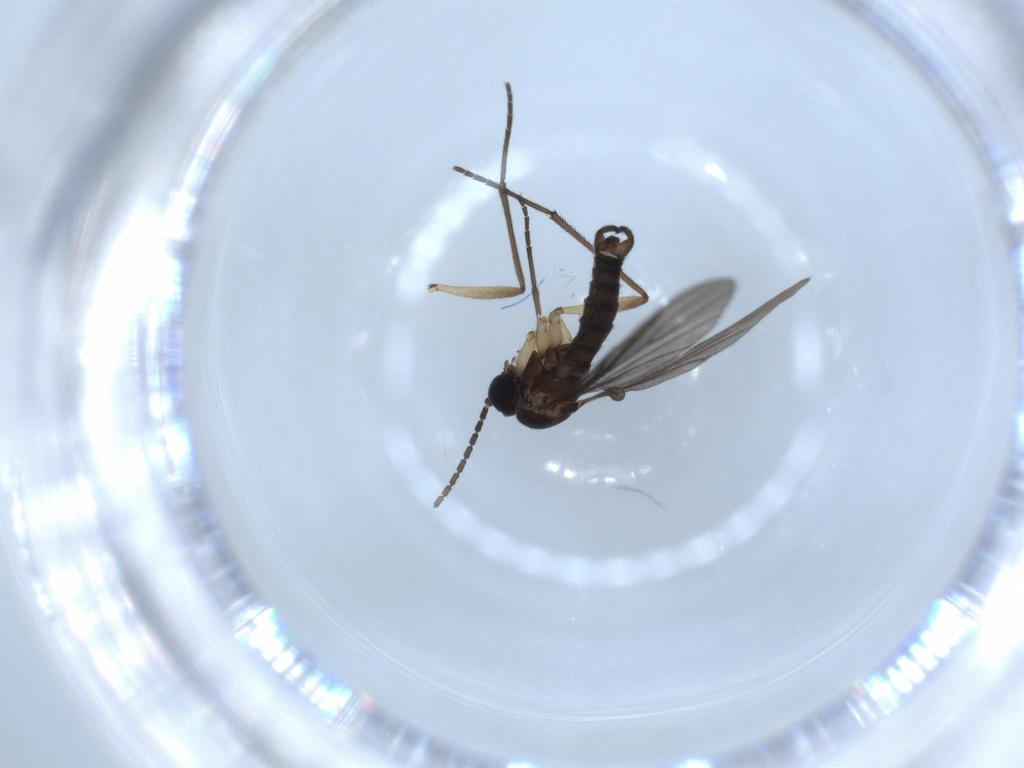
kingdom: Animalia
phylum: Arthropoda
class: Insecta
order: Diptera
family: Sciaridae
